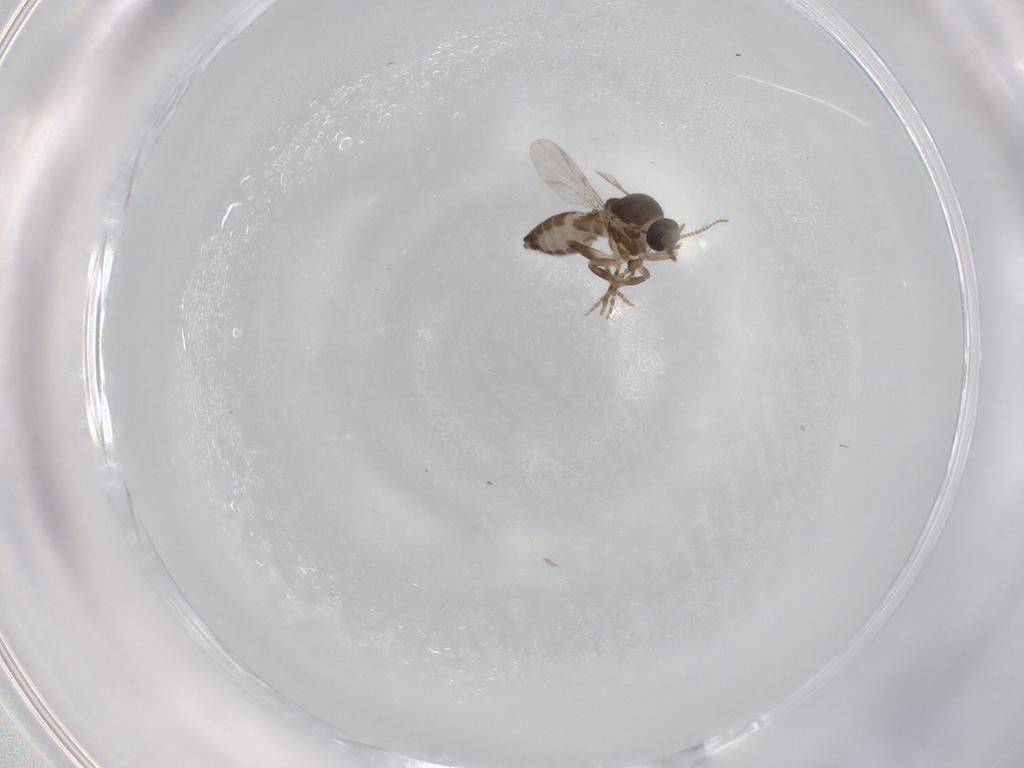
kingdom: Animalia
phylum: Arthropoda
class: Insecta
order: Diptera
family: Ceratopogonidae
